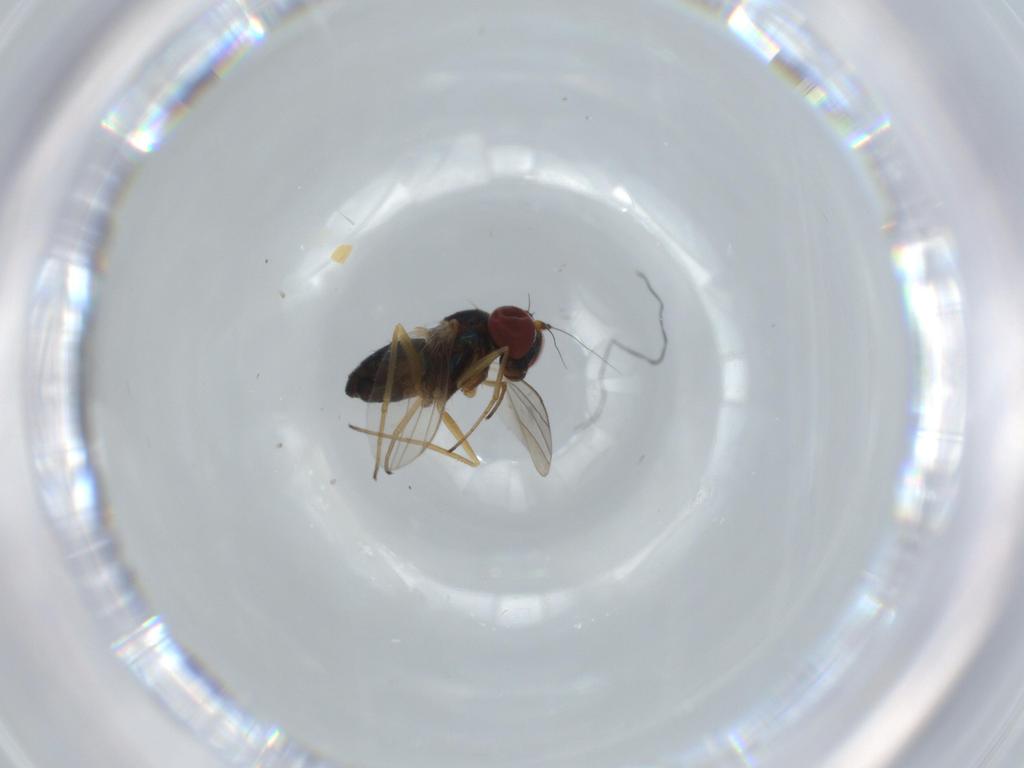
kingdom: Animalia
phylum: Arthropoda
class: Insecta
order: Diptera
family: Dolichopodidae
